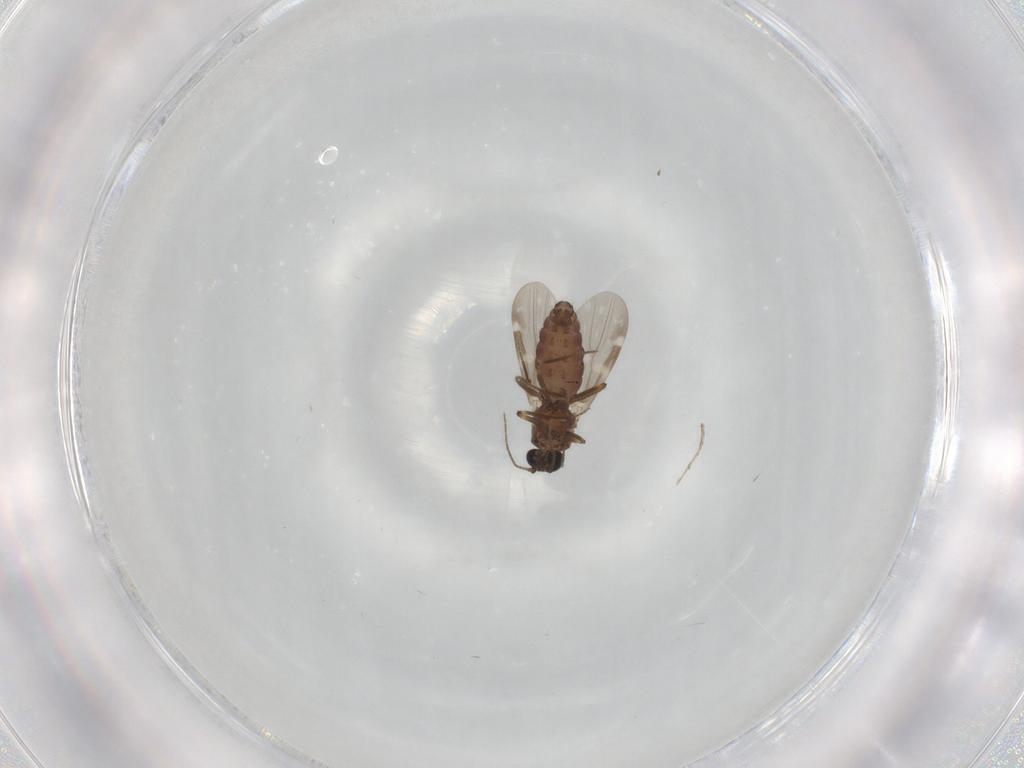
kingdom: Animalia
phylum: Arthropoda
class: Insecta
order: Diptera
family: Ceratopogonidae
